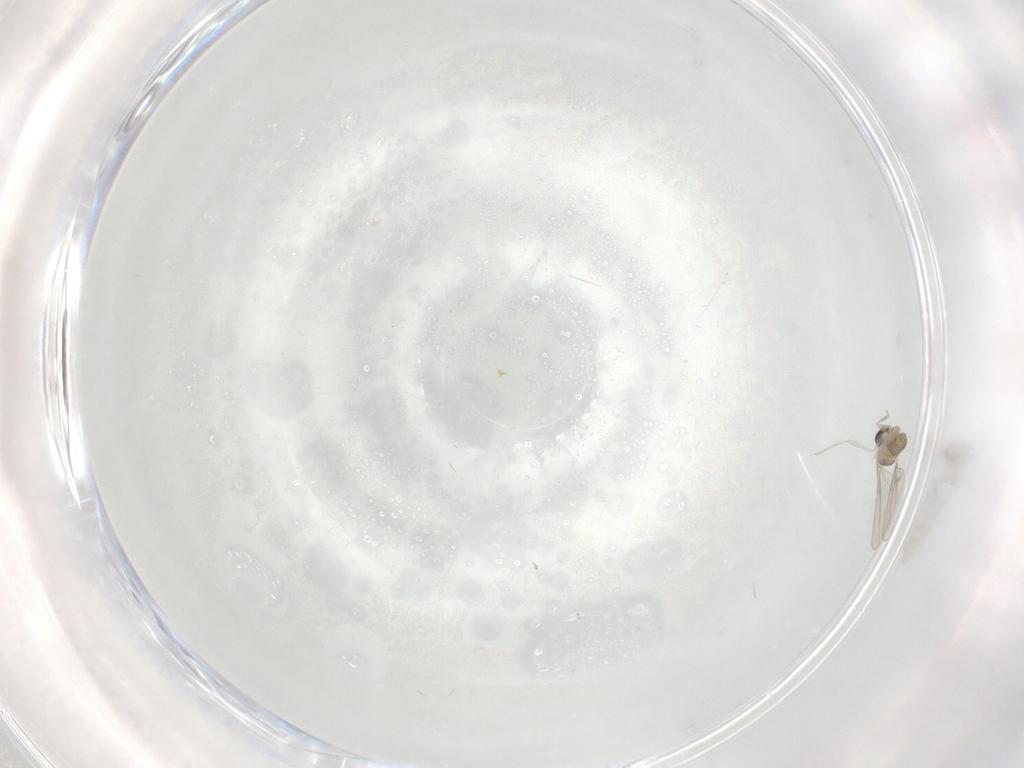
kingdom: Animalia
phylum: Arthropoda
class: Insecta
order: Diptera
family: Cecidomyiidae
